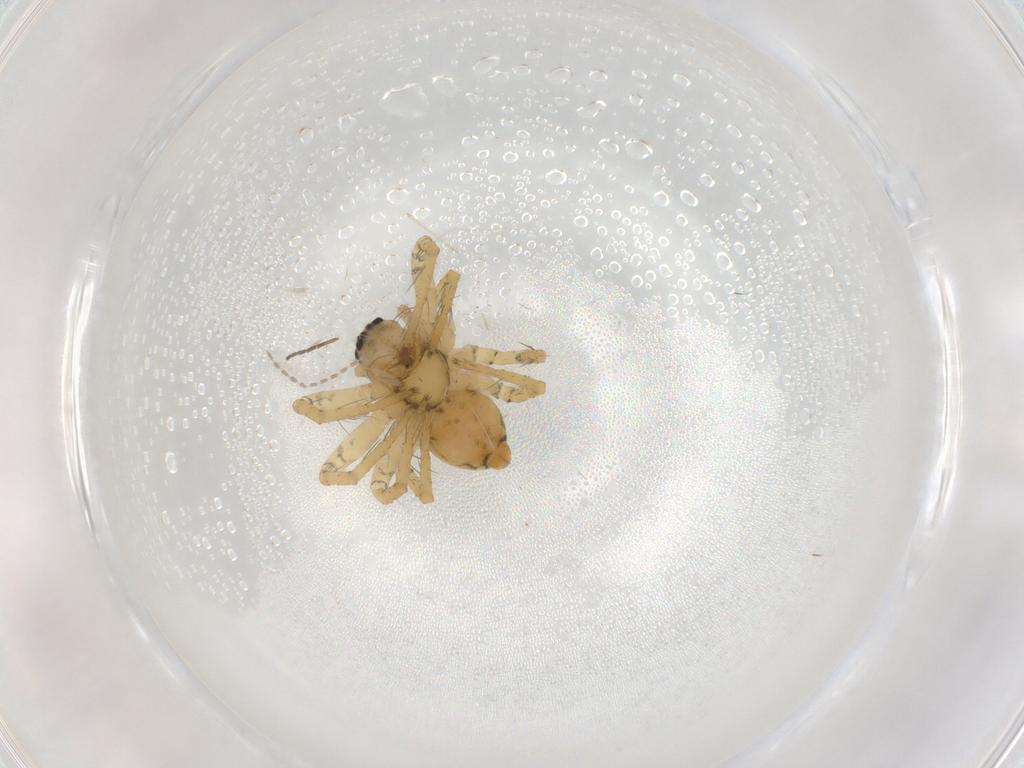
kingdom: Animalia
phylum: Arthropoda
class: Arachnida
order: Araneae
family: Pisauridae
